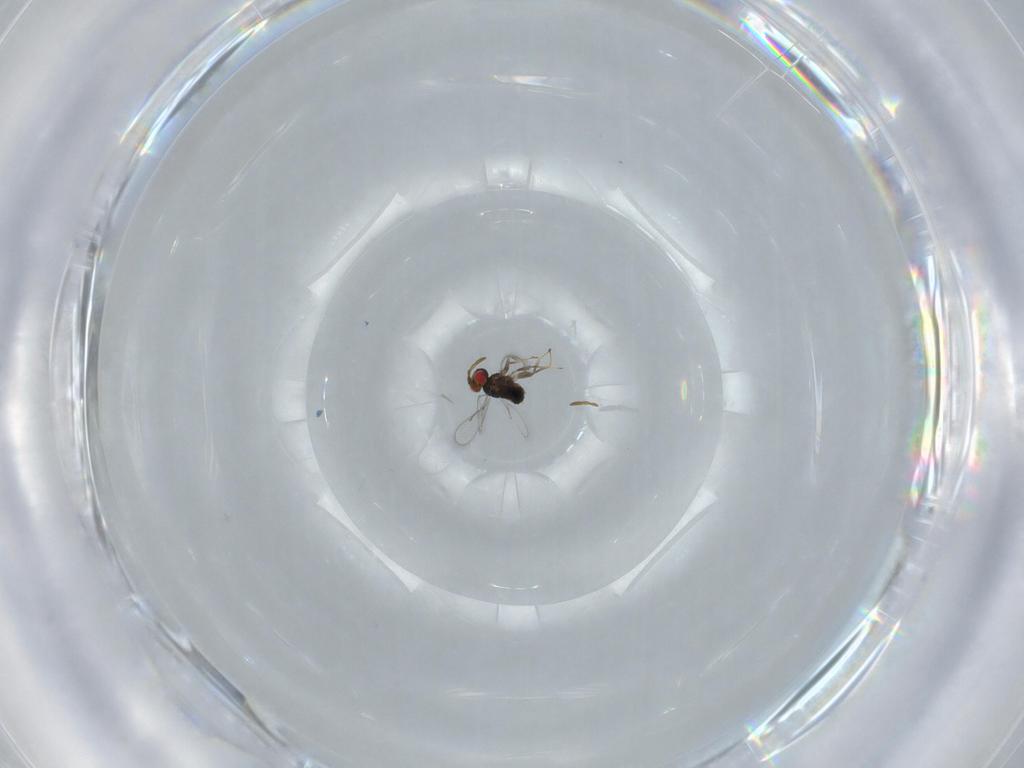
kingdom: Animalia
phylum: Arthropoda
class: Insecta
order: Hymenoptera
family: Azotidae
